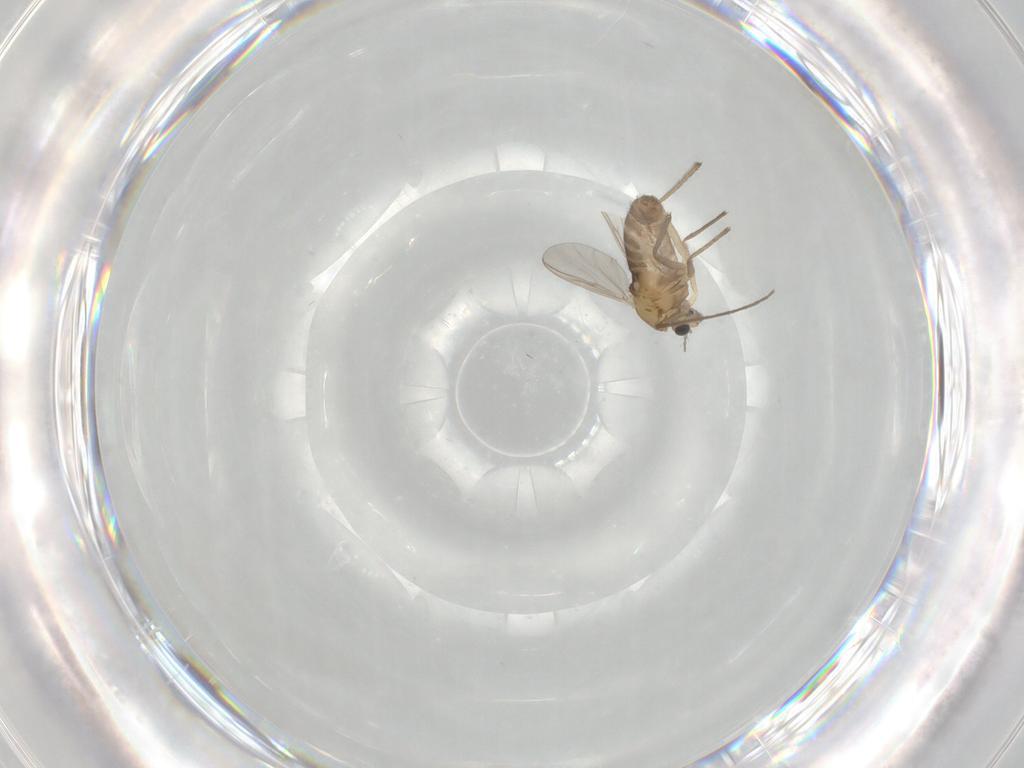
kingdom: Animalia
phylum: Arthropoda
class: Insecta
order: Diptera
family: Chironomidae
